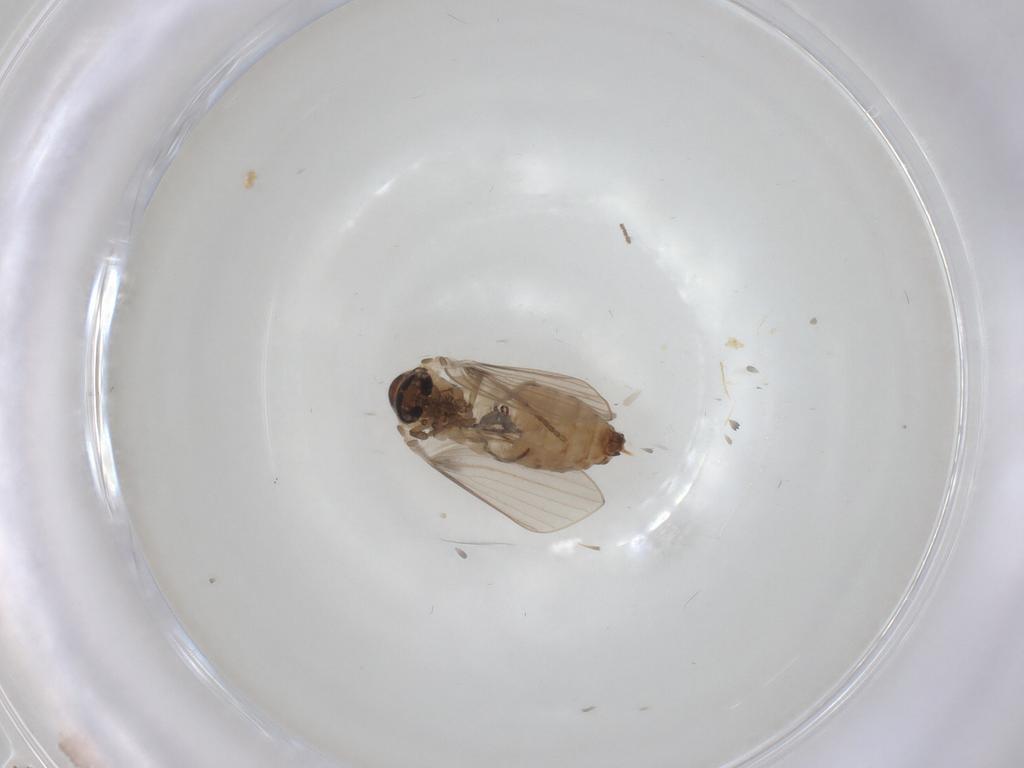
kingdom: Animalia
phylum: Arthropoda
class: Insecta
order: Diptera
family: Psychodidae
